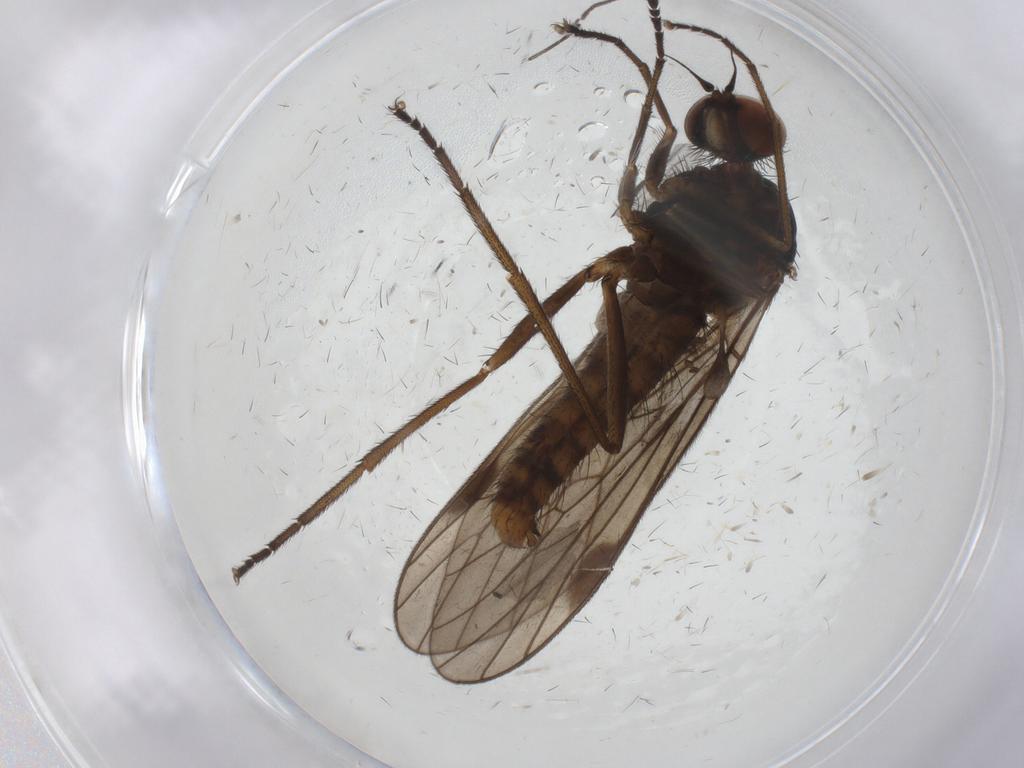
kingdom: Animalia
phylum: Arthropoda
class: Insecta
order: Diptera
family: Empididae
